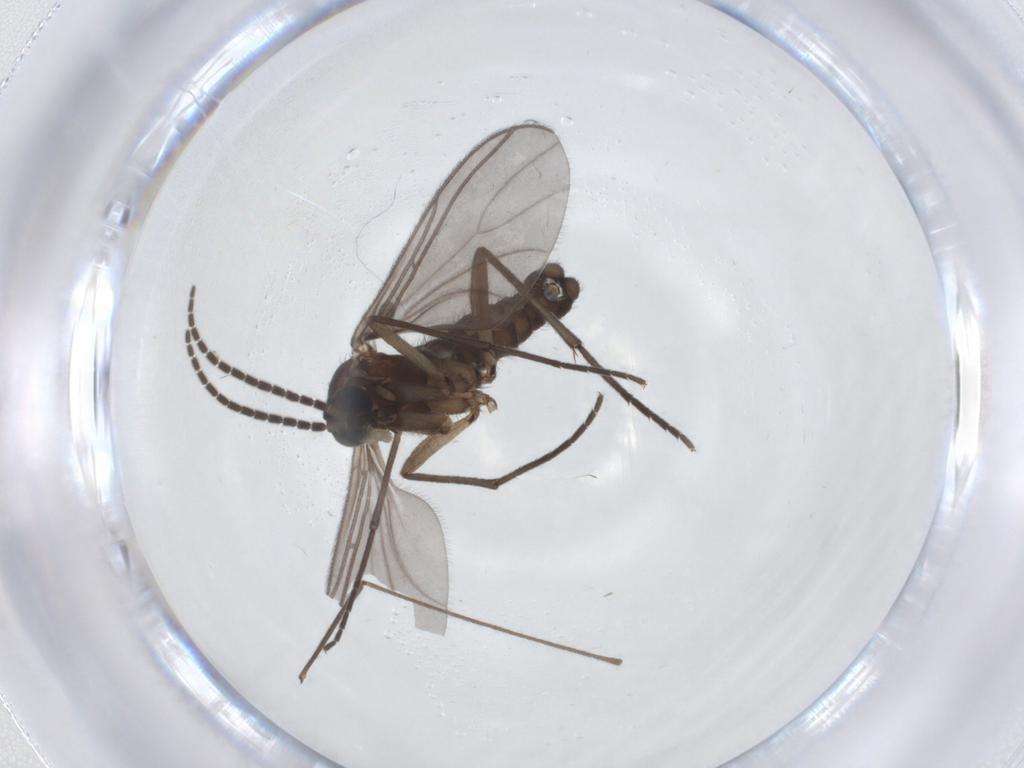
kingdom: Animalia
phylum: Arthropoda
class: Insecta
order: Diptera
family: Sciaridae
